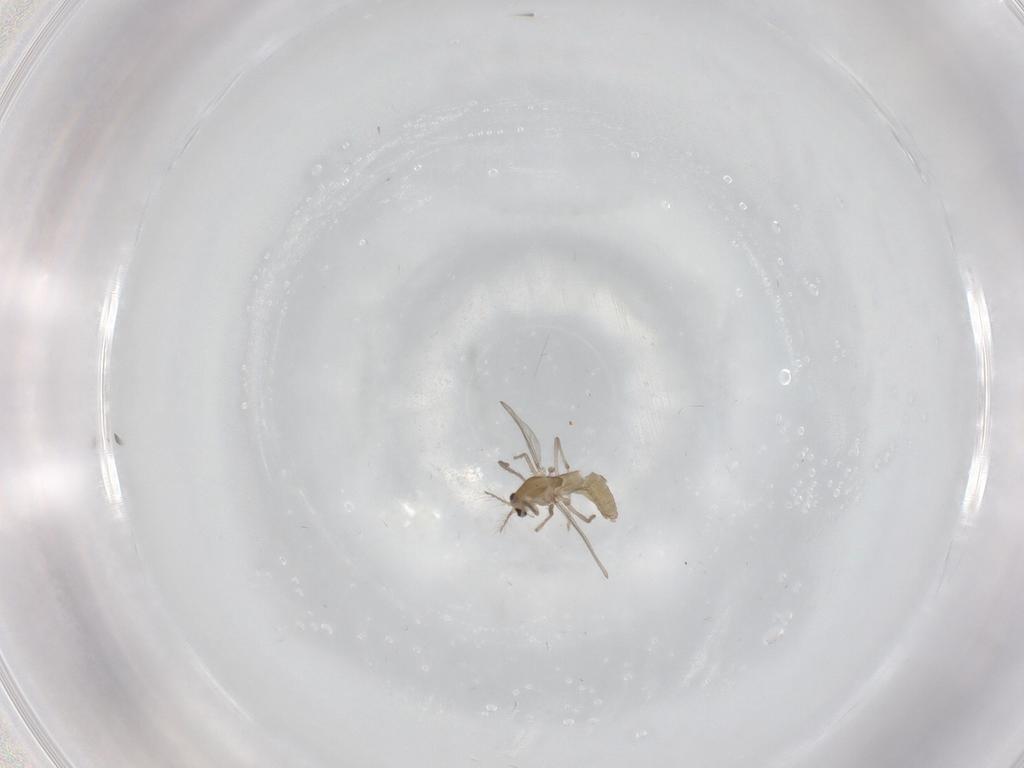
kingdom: Animalia
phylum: Arthropoda
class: Insecta
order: Diptera
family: Chironomidae
